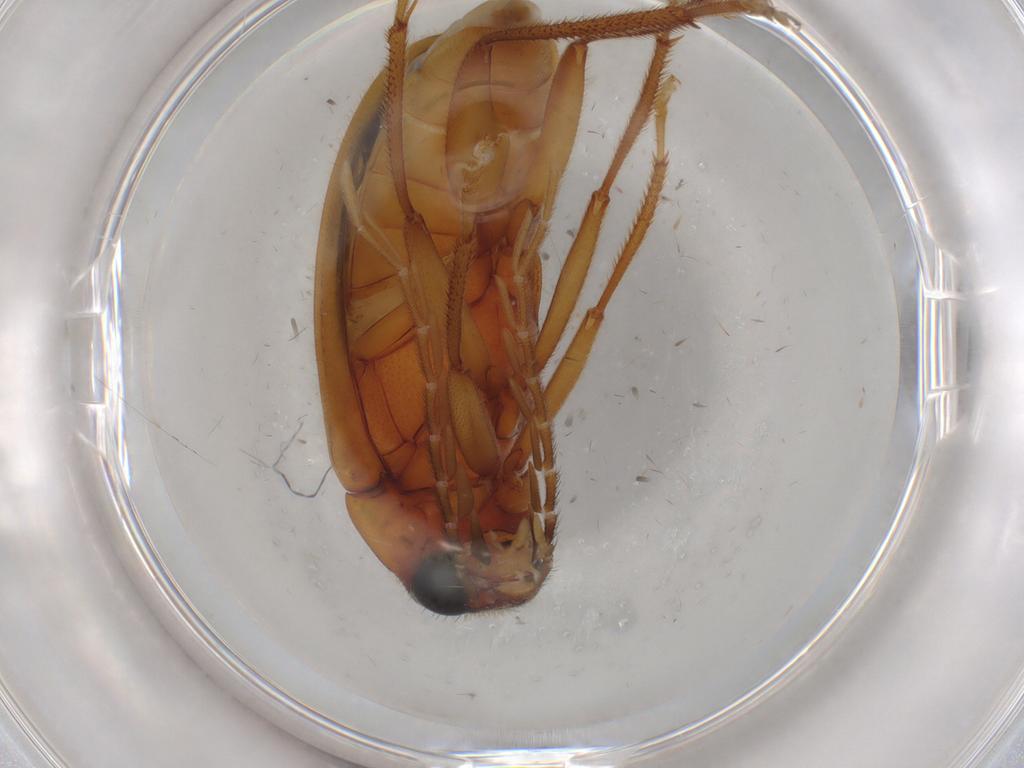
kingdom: Animalia
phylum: Arthropoda
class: Insecta
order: Coleoptera
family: Ptilodactylidae
